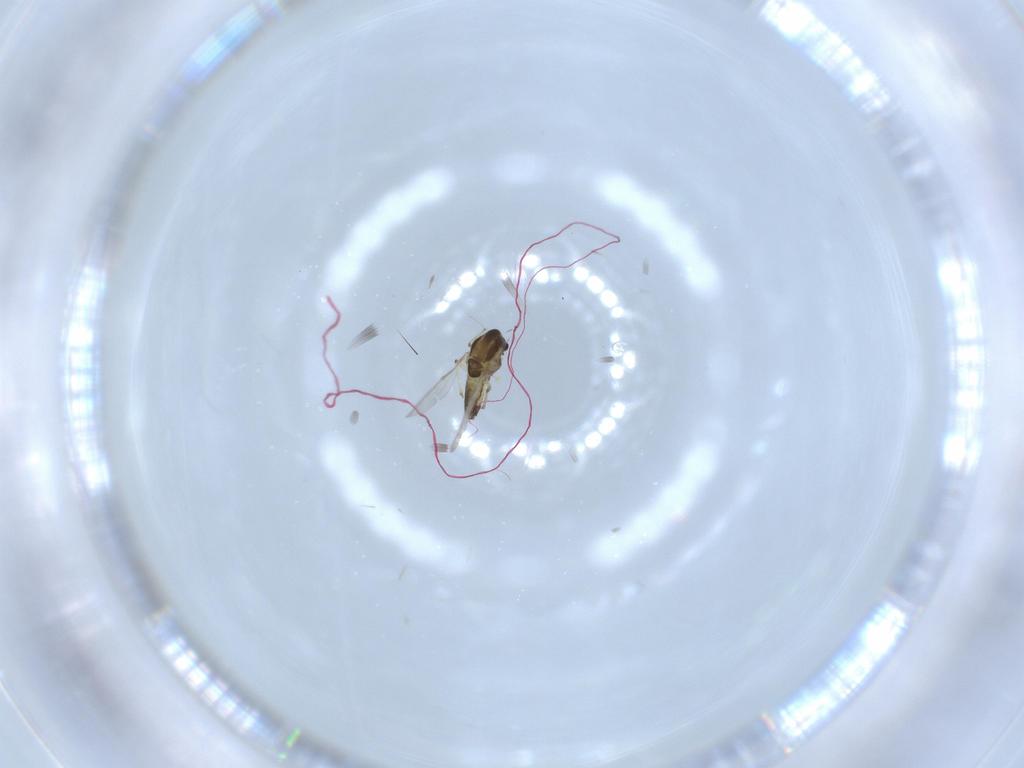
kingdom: Animalia
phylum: Arthropoda
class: Insecta
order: Diptera
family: Chironomidae
